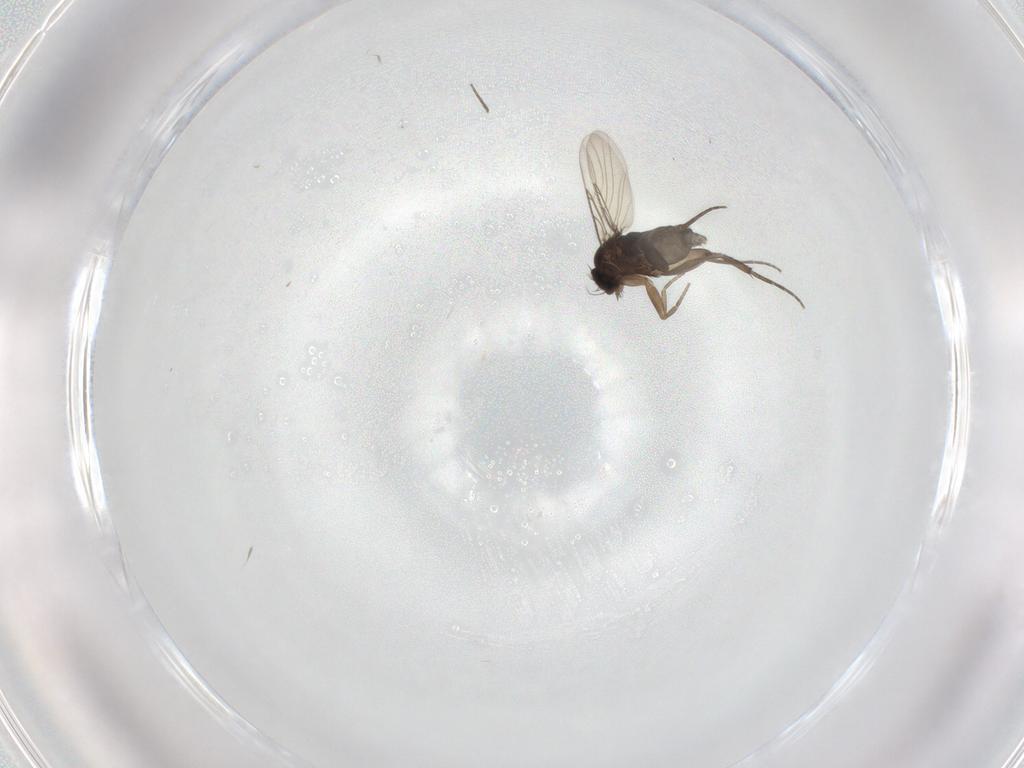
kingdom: Animalia
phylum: Arthropoda
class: Insecta
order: Diptera
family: Phoridae
